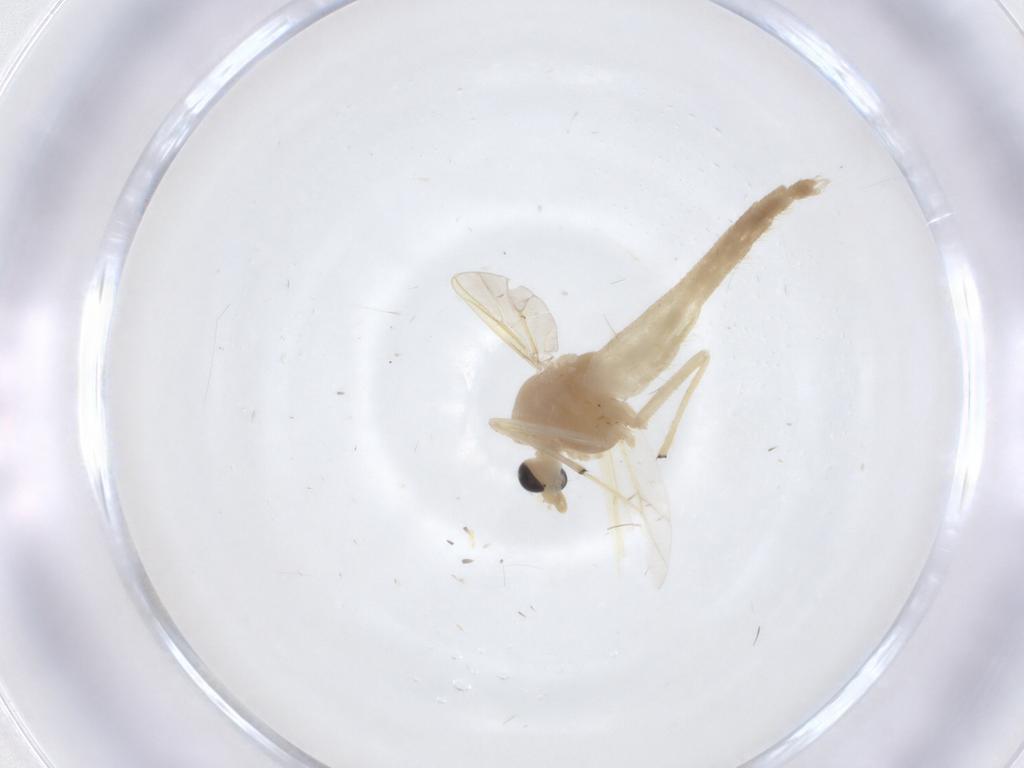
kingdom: Animalia
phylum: Arthropoda
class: Insecta
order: Diptera
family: Chironomidae
